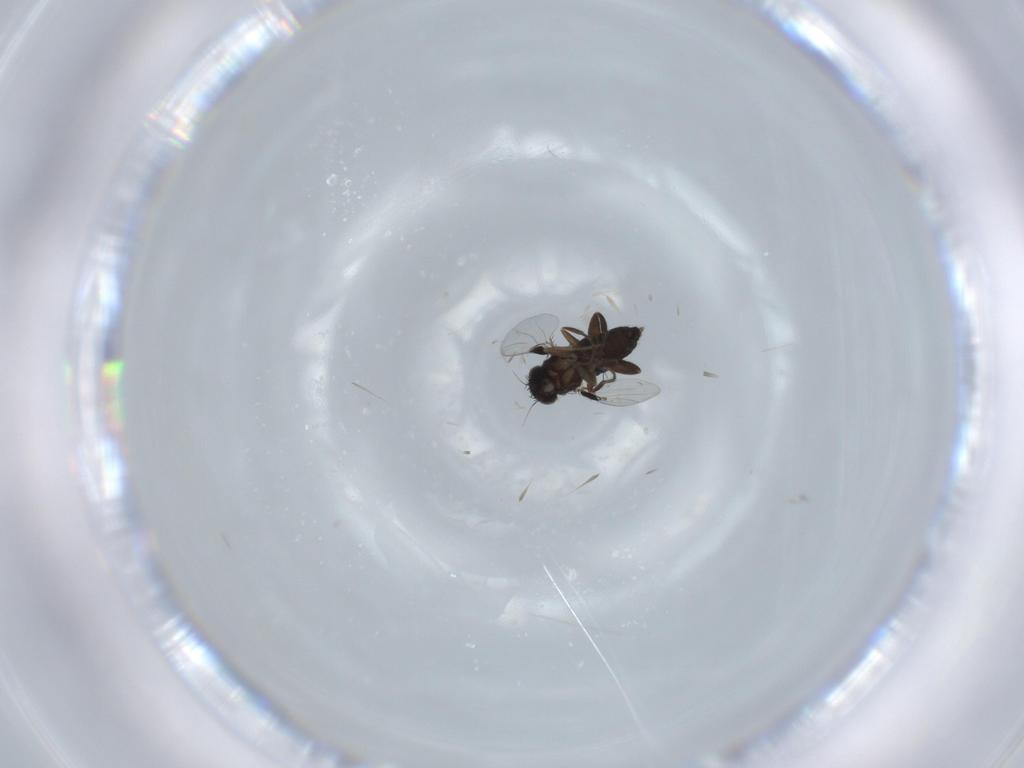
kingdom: Animalia
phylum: Arthropoda
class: Insecta
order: Diptera
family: Phoridae
